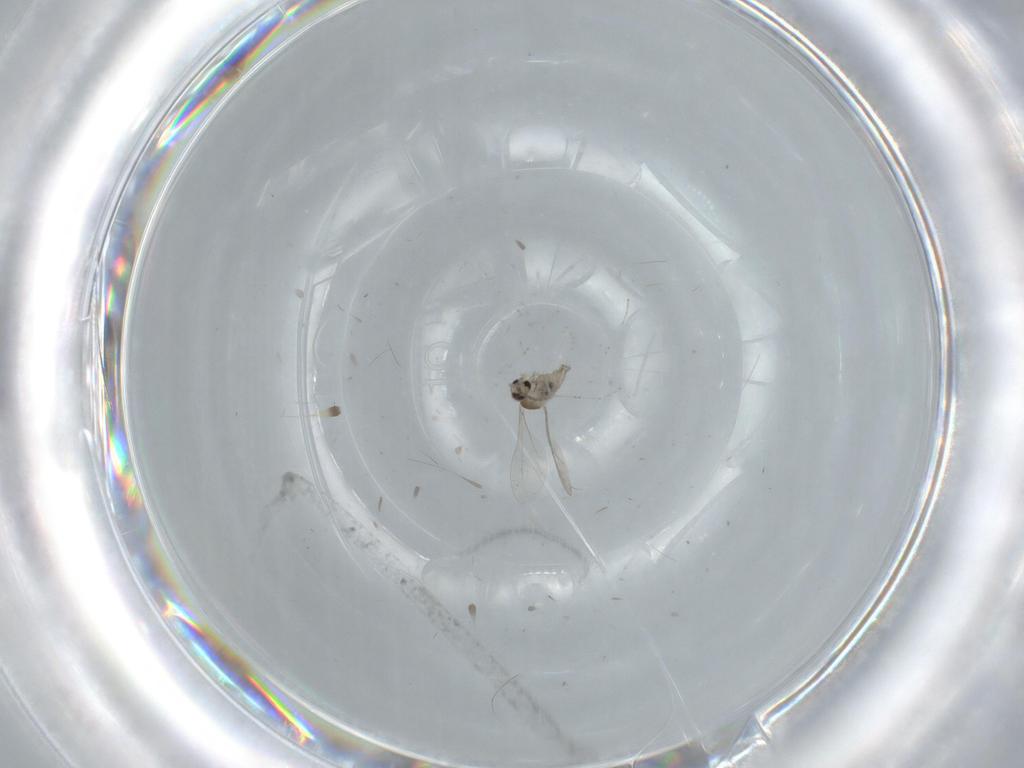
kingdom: Animalia
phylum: Arthropoda
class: Insecta
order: Diptera
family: Cecidomyiidae
